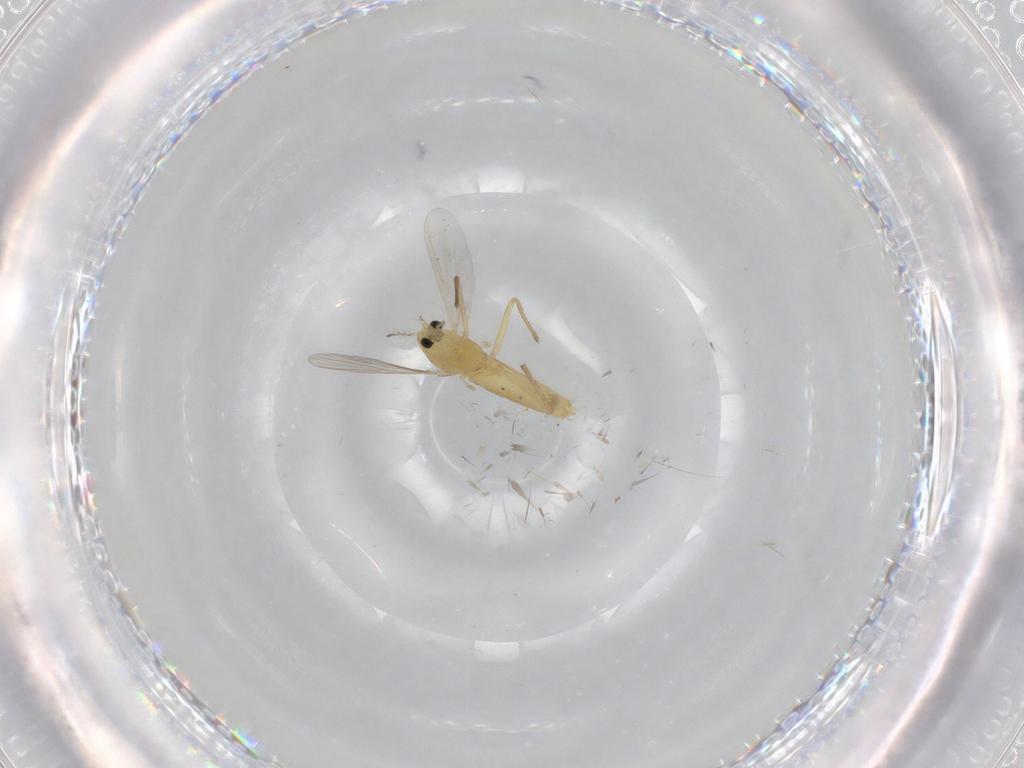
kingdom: Animalia
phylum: Arthropoda
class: Insecta
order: Diptera
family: Chironomidae
